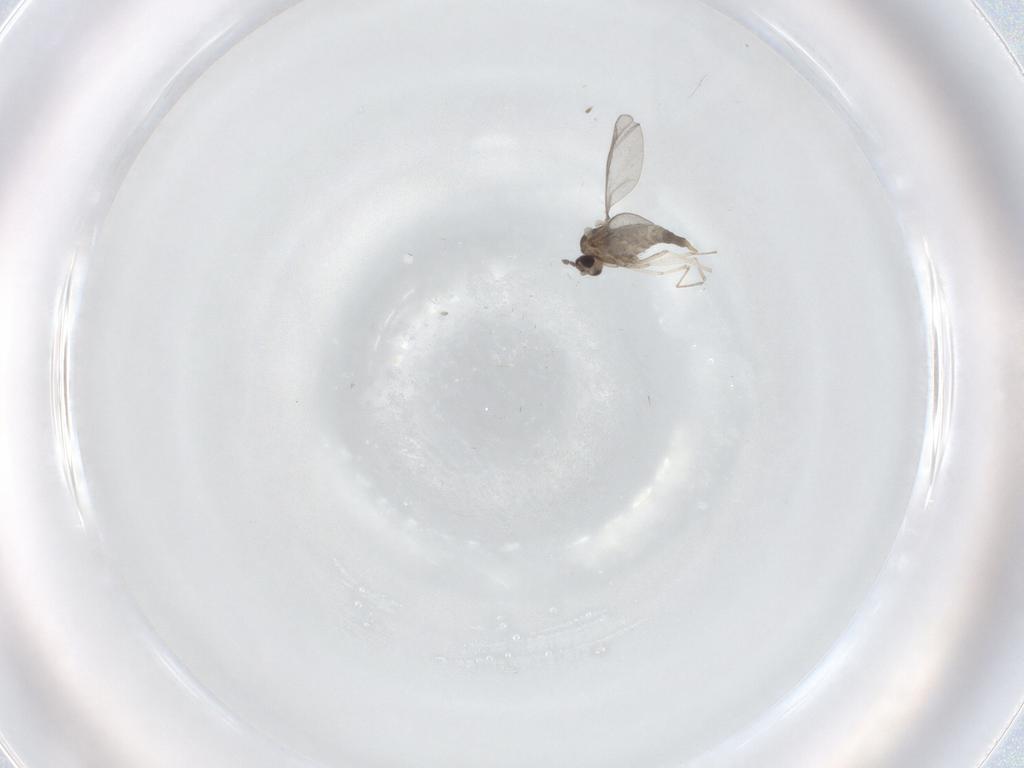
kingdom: Animalia
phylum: Arthropoda
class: Insecta
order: Diptera
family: Cecidomyiidae
